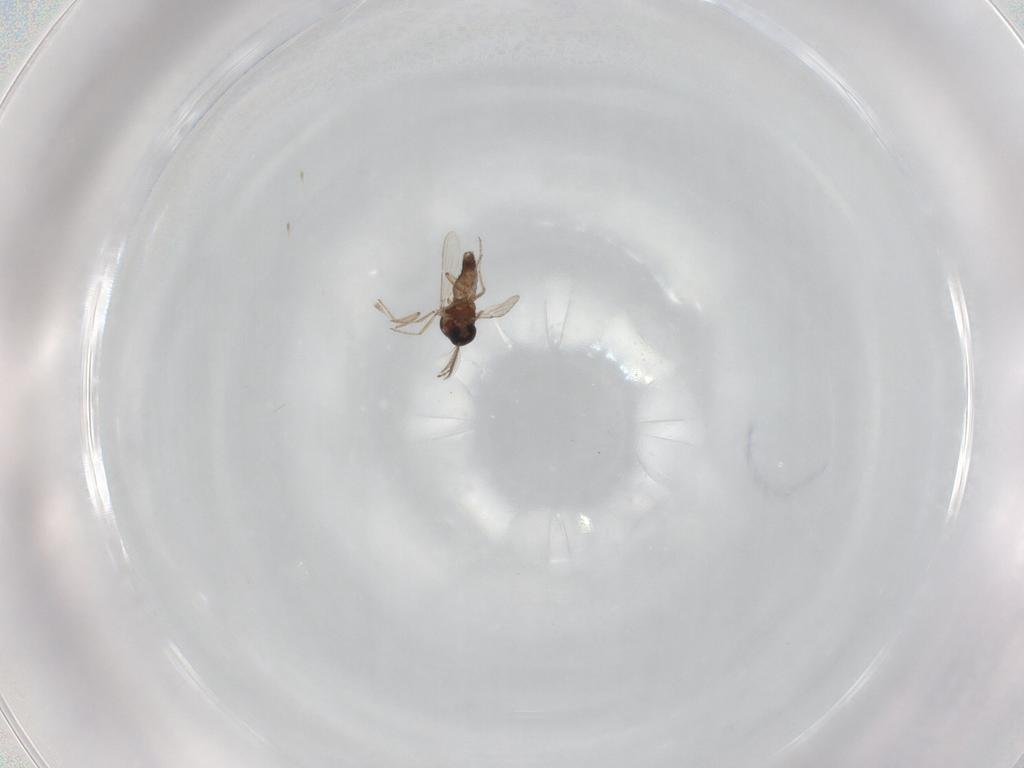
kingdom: Animalia
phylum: Arthropoda
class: Insecta
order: Diptera
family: Ceratopogonidae
